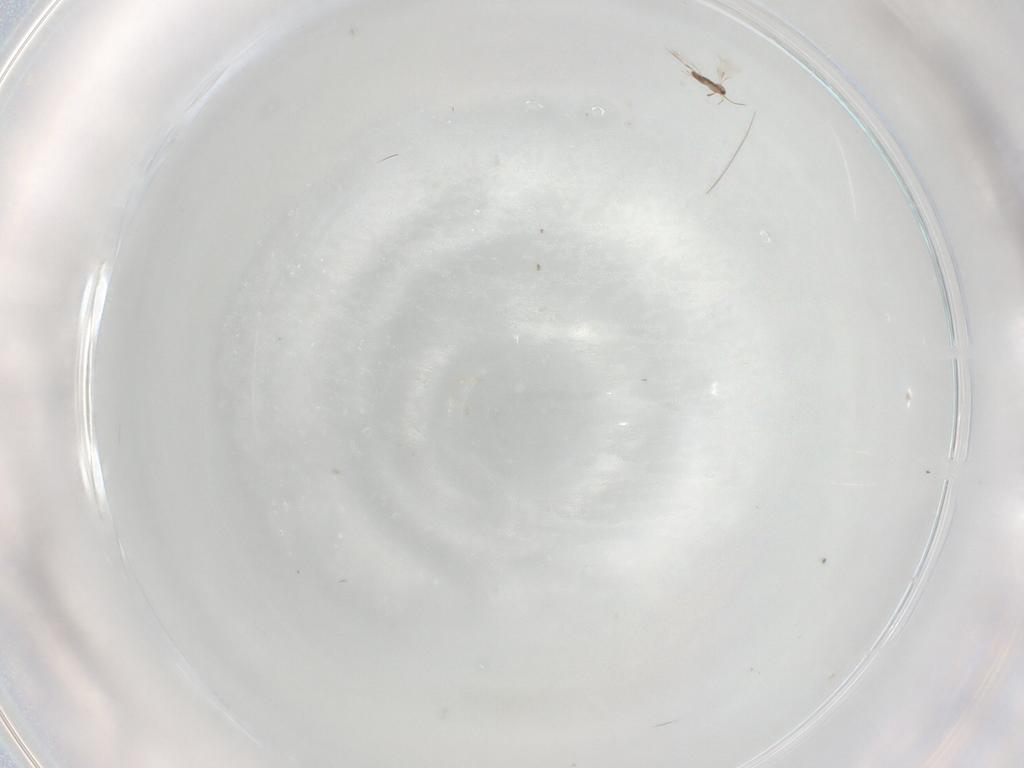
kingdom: Animalia
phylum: Arthropoda
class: Insecta
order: Hymenoptera
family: Aphelinidae
